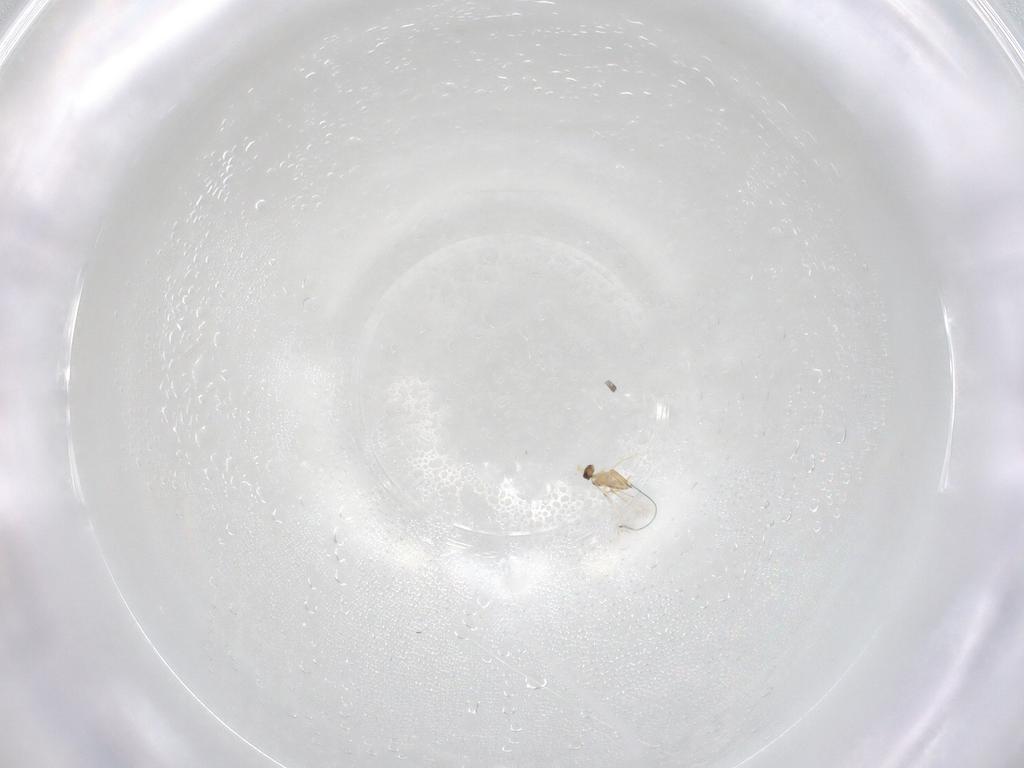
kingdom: Animalia
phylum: Arthropoda
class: Insecta
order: Hymenoptera
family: Mymaridae
